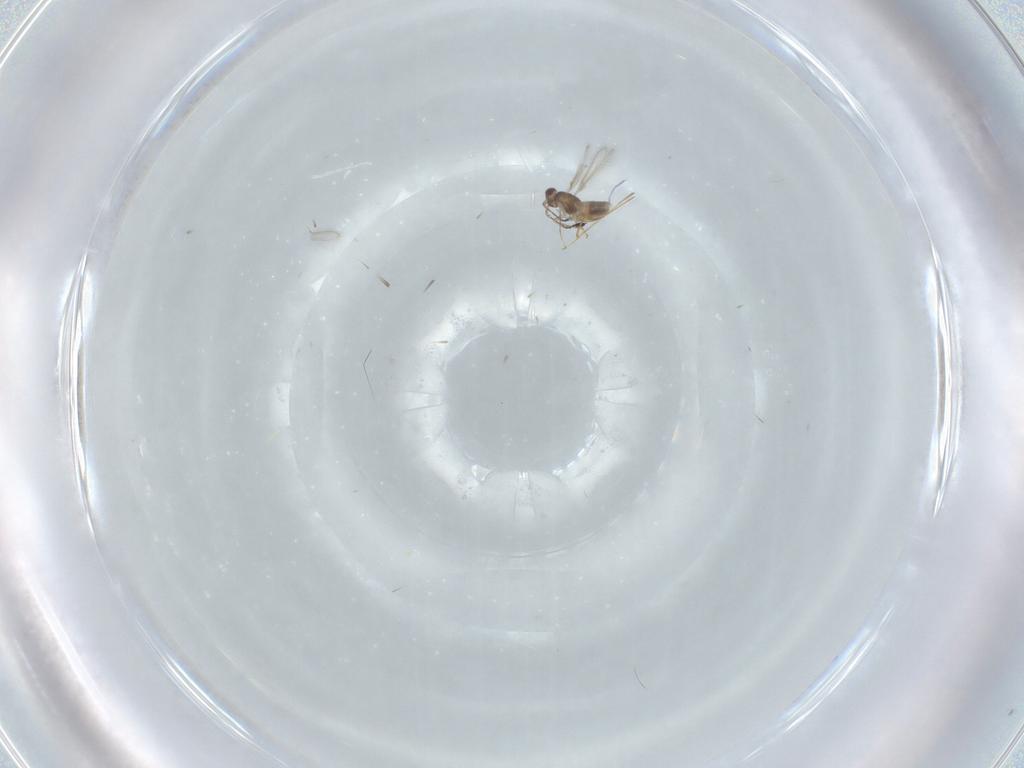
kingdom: Animalia
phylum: Arthropoda
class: Insecta
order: Hymenoptera
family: Mymaridae
